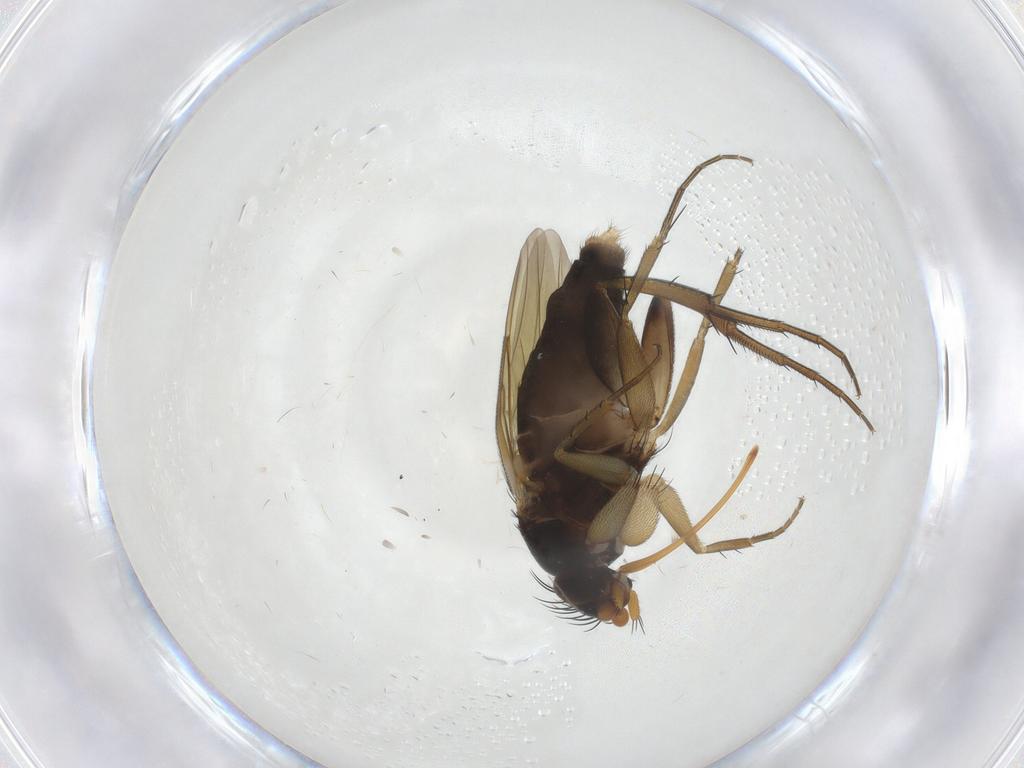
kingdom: Animalia
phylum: Arthropoda
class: Insecta
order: Diptera
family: Phoridae
